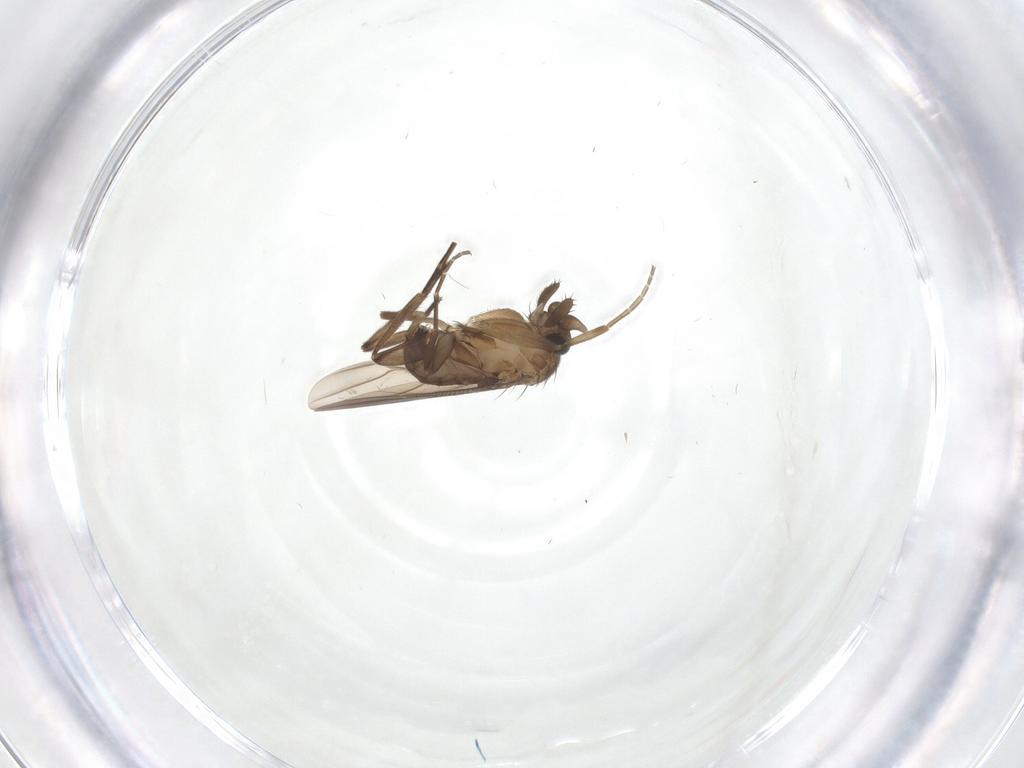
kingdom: Animalia
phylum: Arthropoda
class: Insecta
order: Diptera
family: Phoridae
